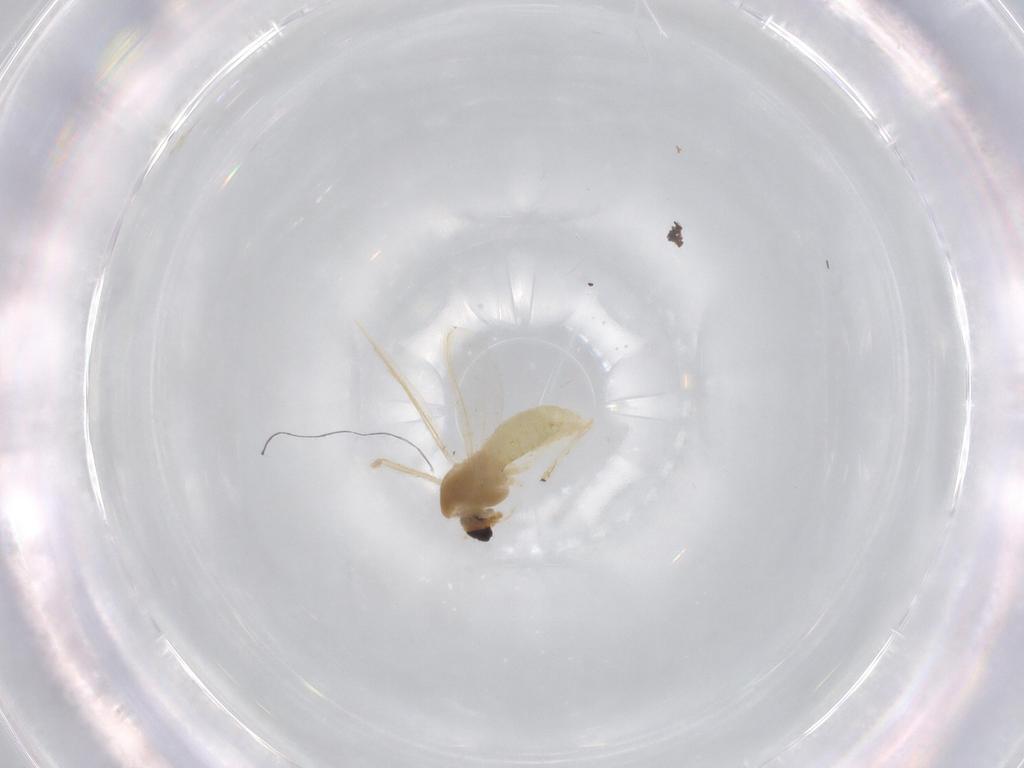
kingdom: Animalia
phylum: Arthropoda
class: Insecta
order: Diptera
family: Chironomidae
